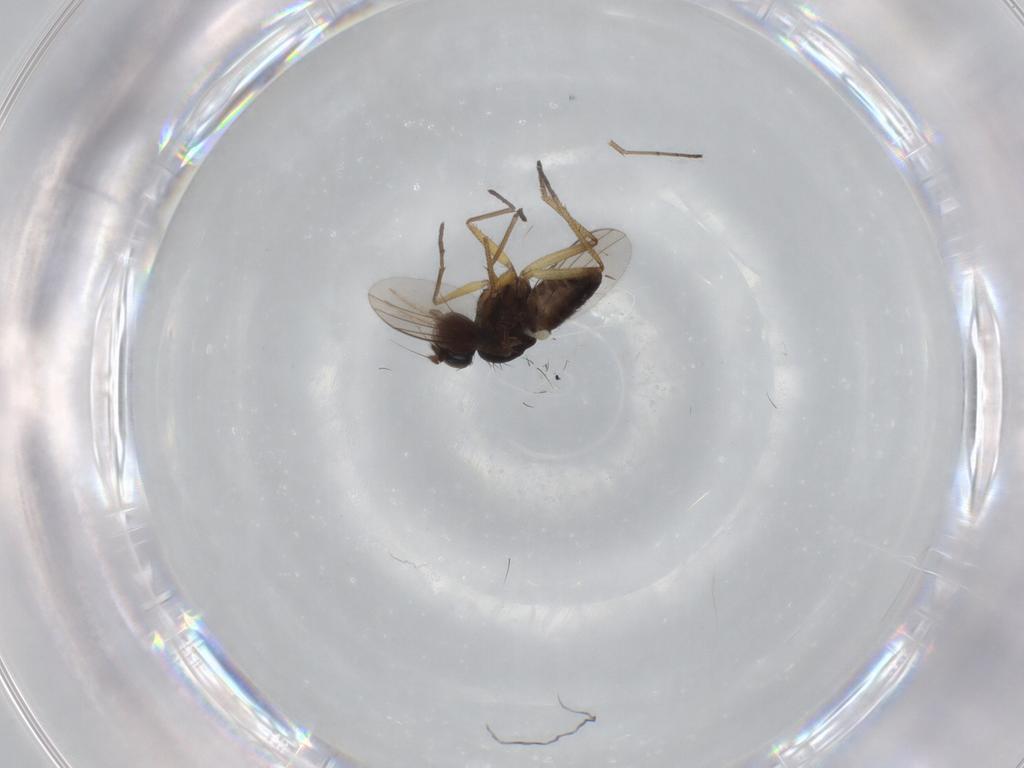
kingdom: Animalia
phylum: Arthropoda
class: Insecta
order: Diptera
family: Dolichopodidae
